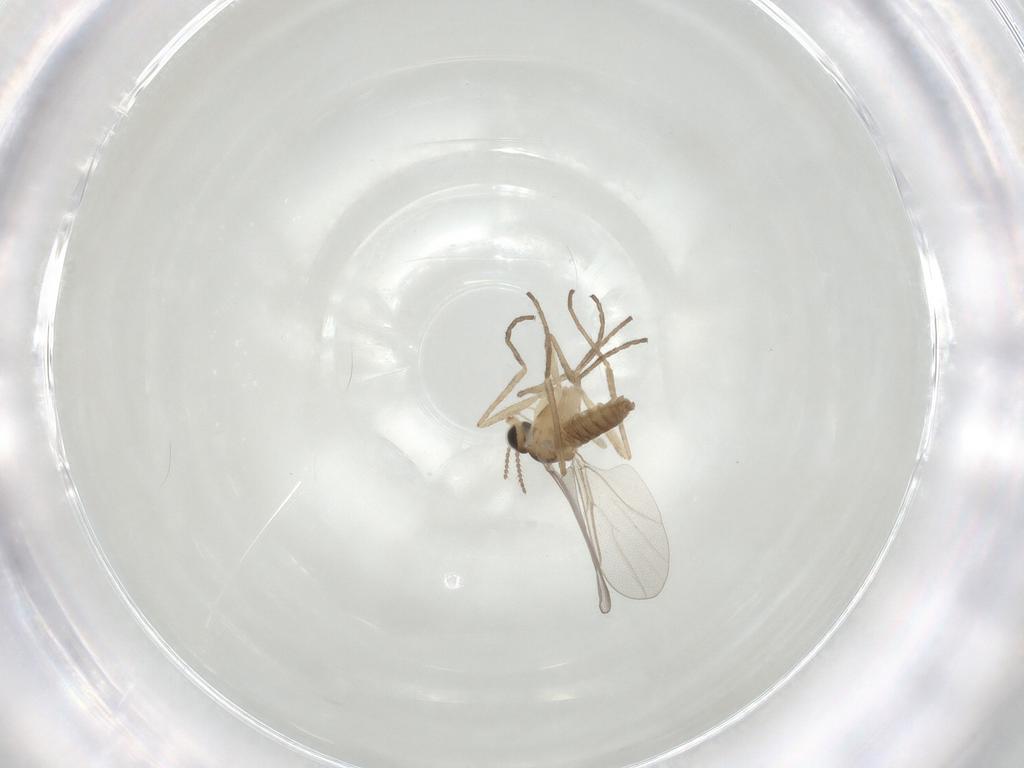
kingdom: Animalia
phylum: Arthropoda
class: Insecta
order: Diptera
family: Cecidomyiidae
